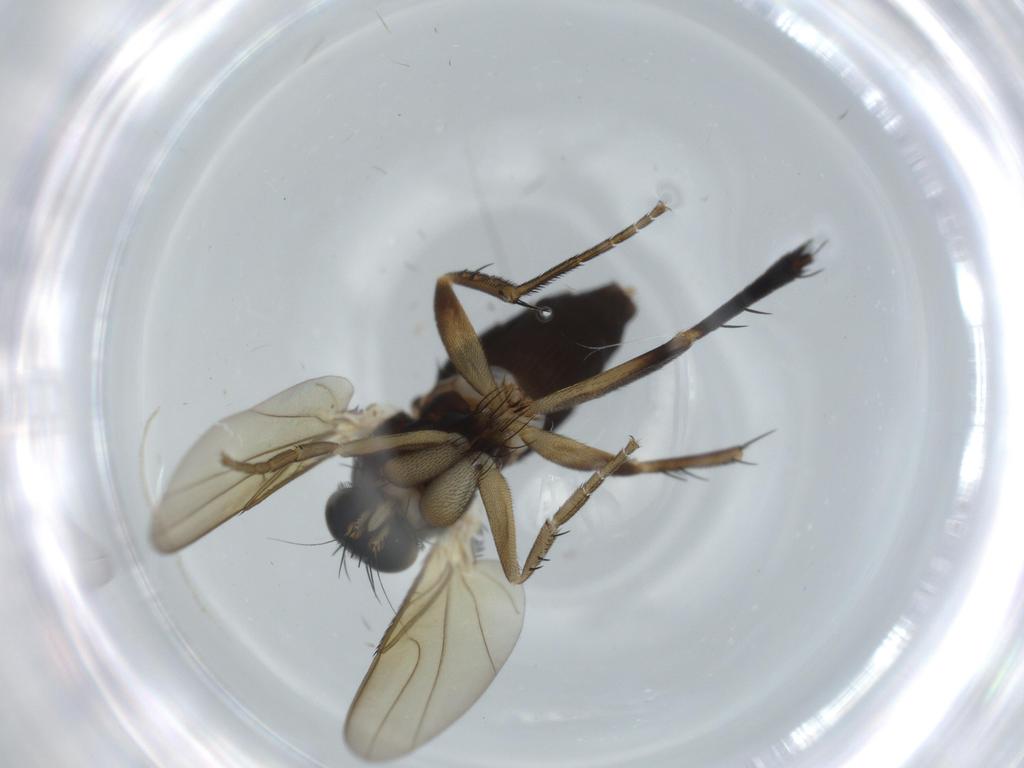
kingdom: Animalia
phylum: Arthropoda
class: Insecta
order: Diptera
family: Phoridae
